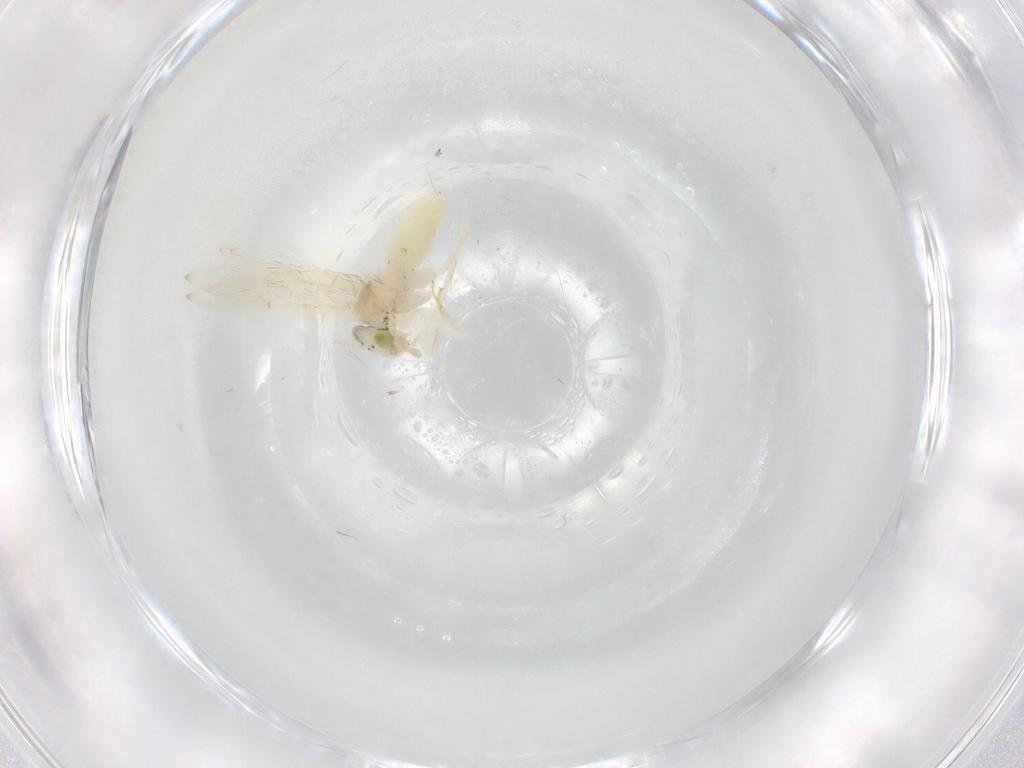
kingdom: Animalia
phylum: Arthropoda
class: Insecta
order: Psocodea
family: Lepidopsocidae
